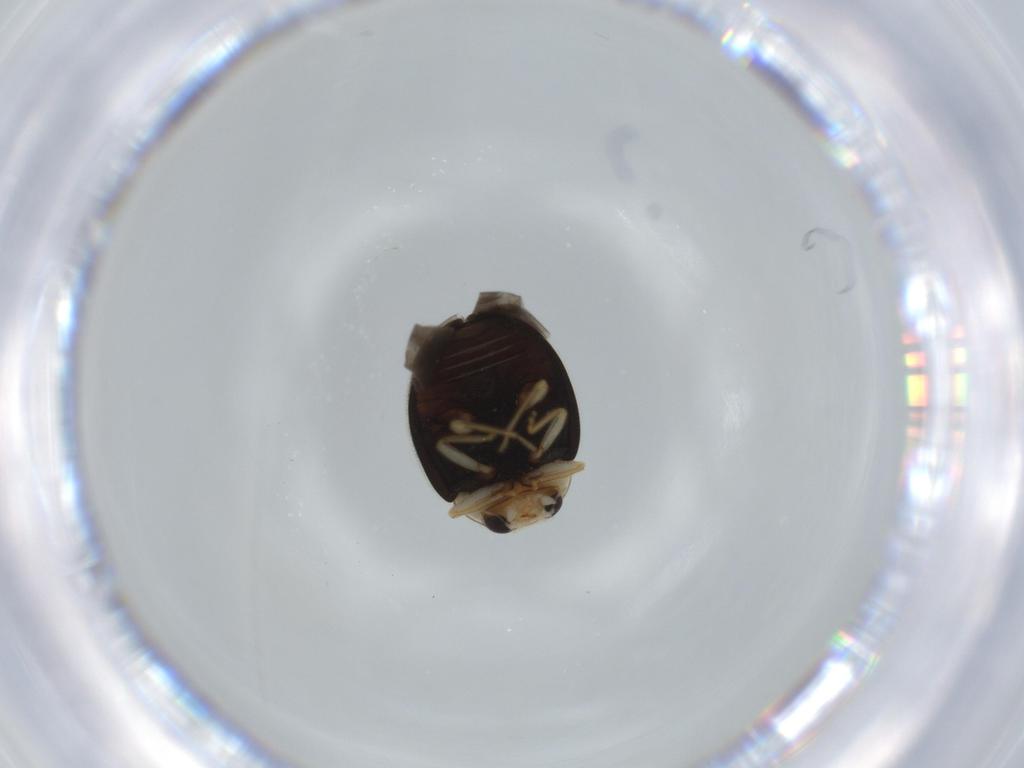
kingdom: Animalia
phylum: Arthropoda
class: Insecta
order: Coleoptera
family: Coccinellidae
